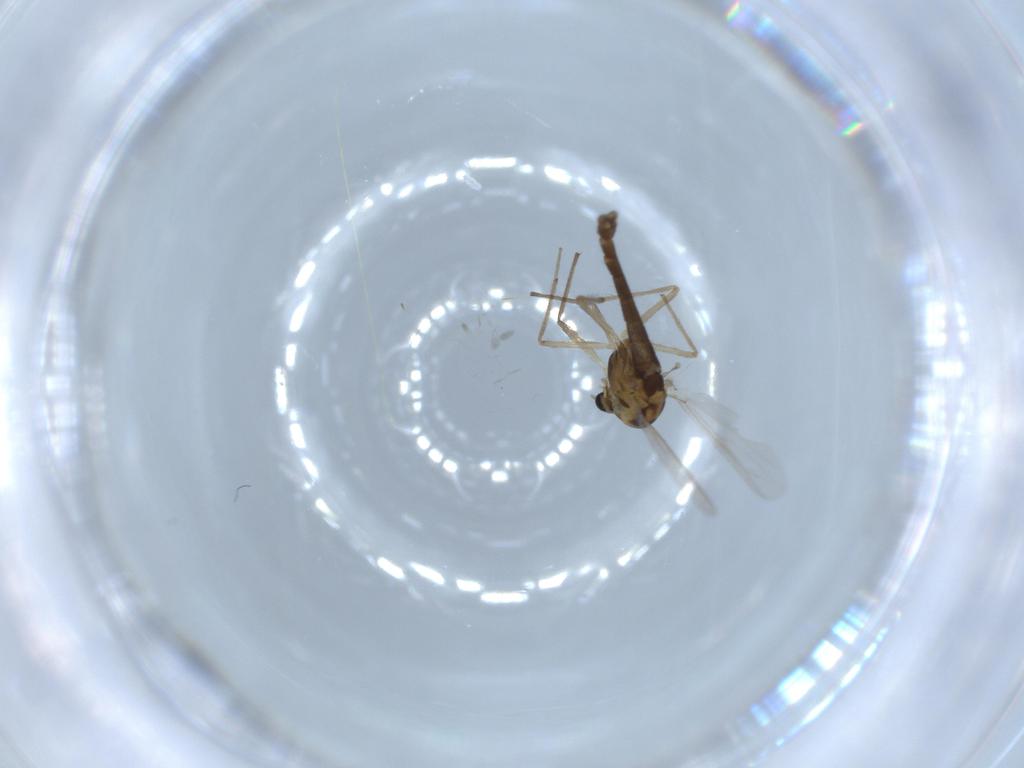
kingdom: Animalia
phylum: Arthropoda
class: Insecta
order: Diptera
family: Chironomidae
